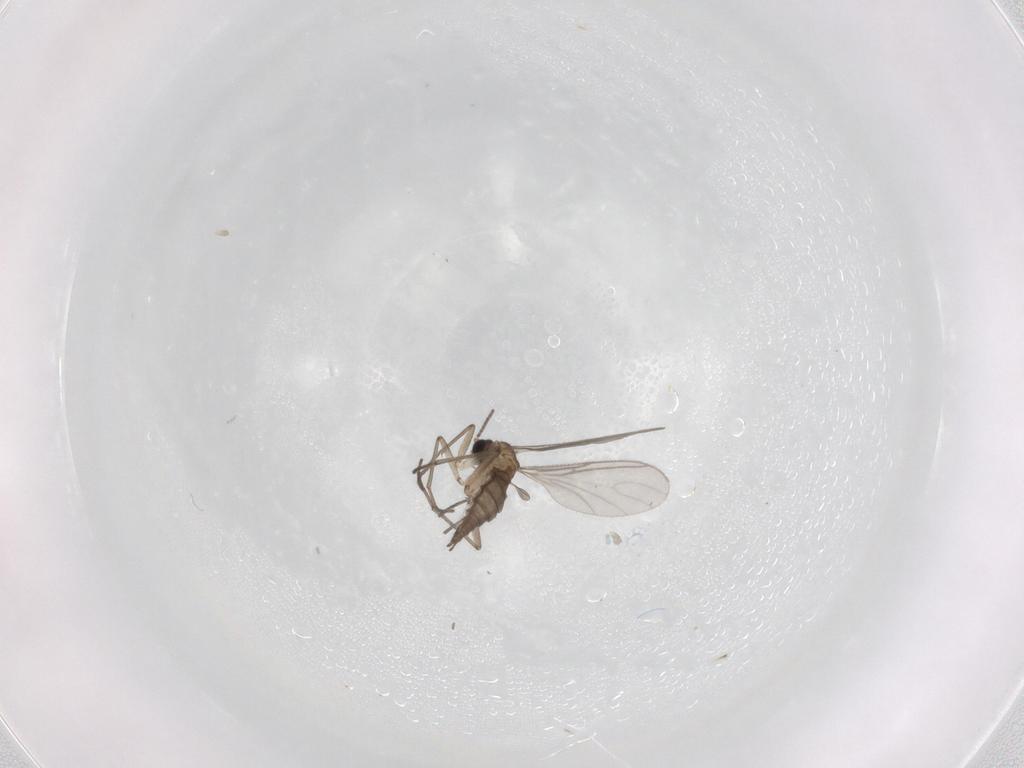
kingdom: Animalia
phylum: Arthropoda
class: Insecta
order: Diptera
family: Sciaridae
